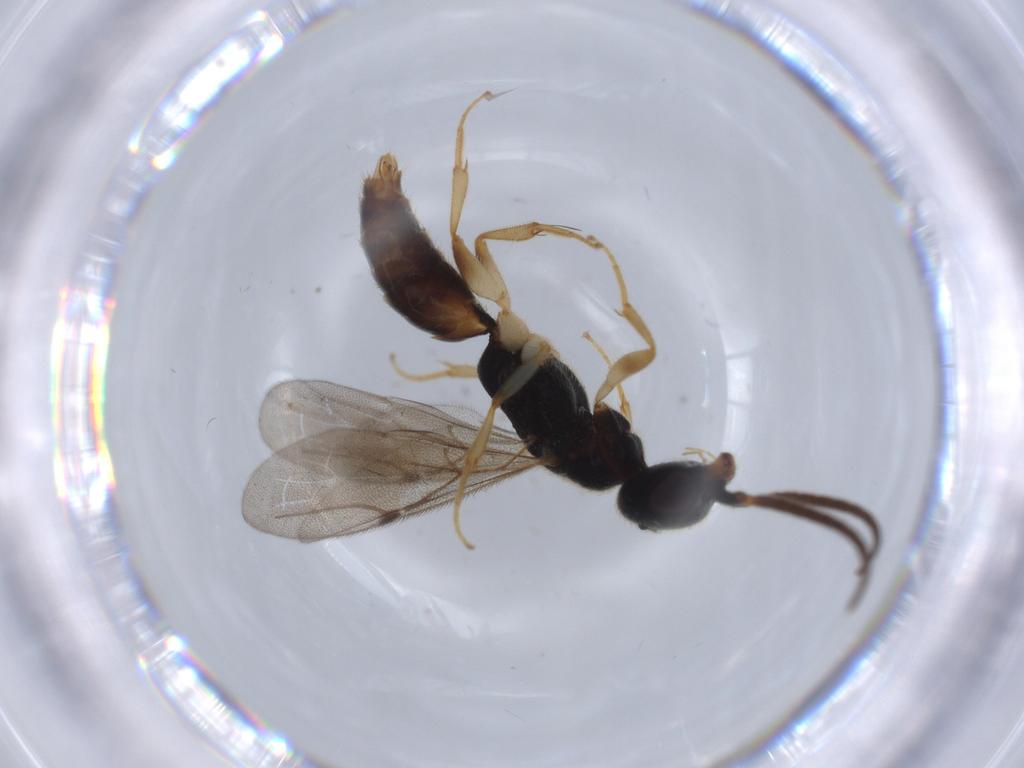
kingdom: Animalia
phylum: Arthropoda
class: Insecta
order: Hymenoptera
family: Bethylidae
